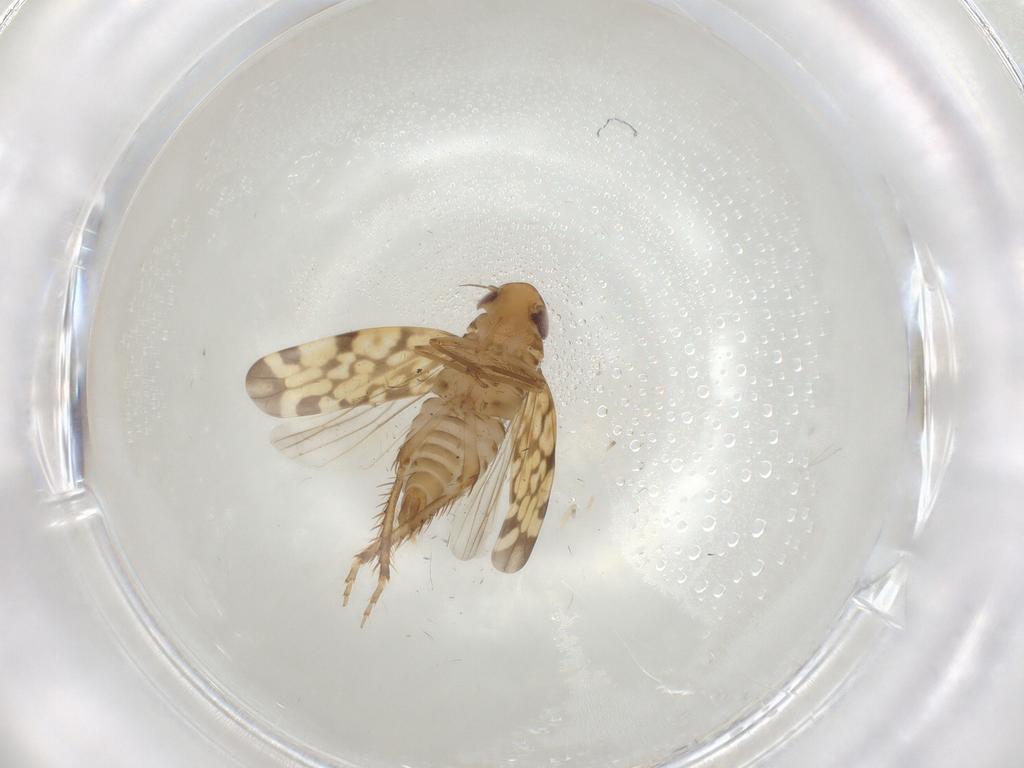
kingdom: Animalia
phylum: Arthropoda
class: Insecta
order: Hemiptera
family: Cicadellidae
